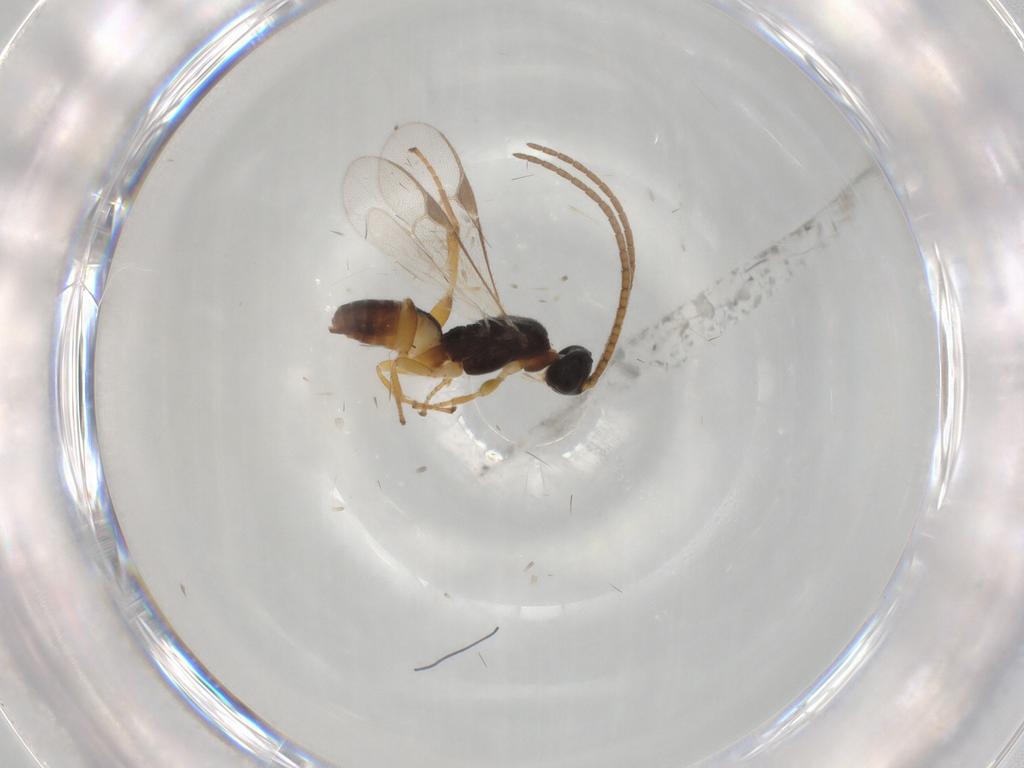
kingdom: Animalia
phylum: Arthropoda
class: Insecta
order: Hymenoptera
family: Braconidae
